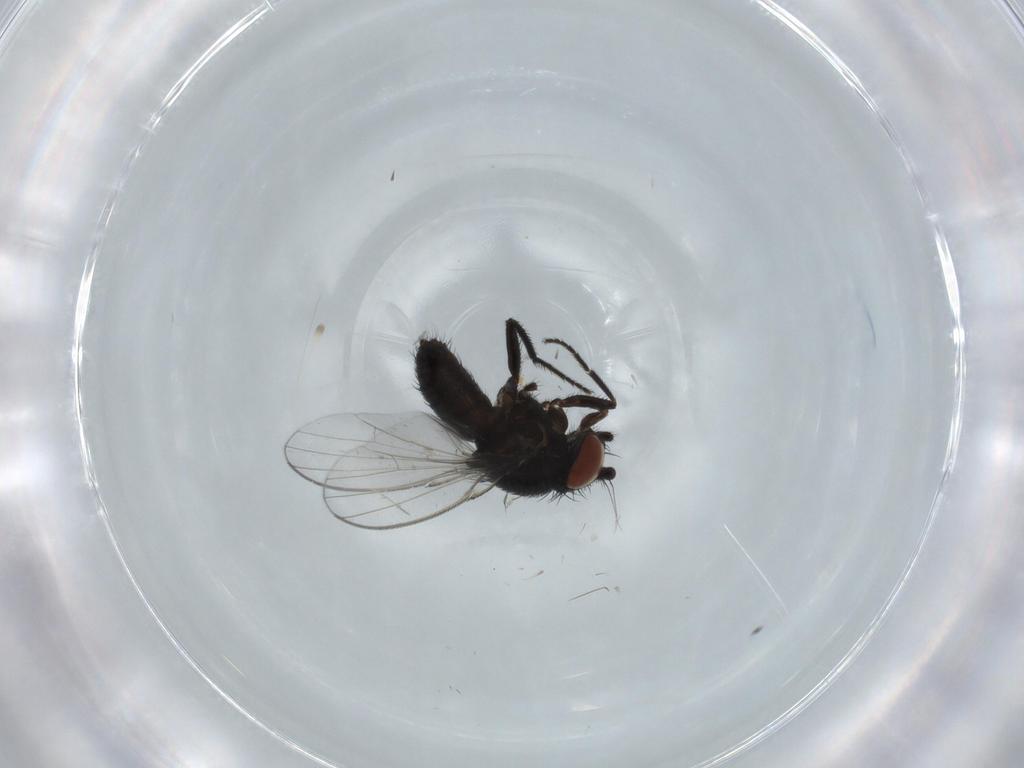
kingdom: Animalia
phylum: Arthropoda
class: Insecta
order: Diptera
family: Milichiidae
